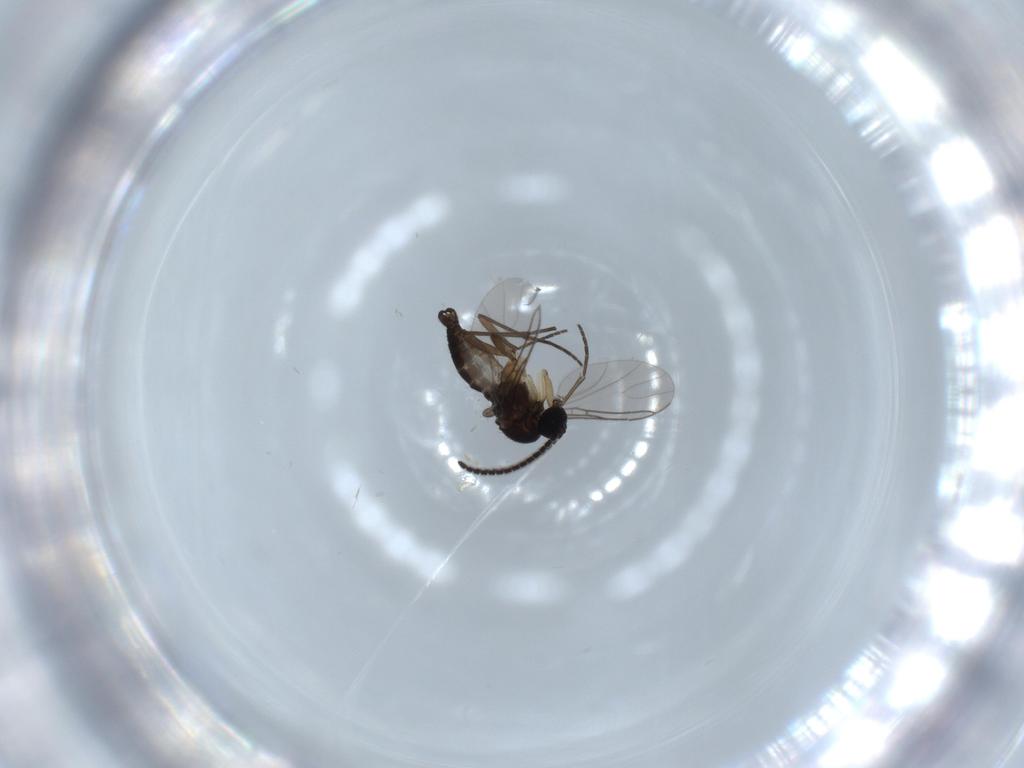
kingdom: Animalia
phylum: Arthropoda
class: Insecta
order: Diptera
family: Sciaridae
